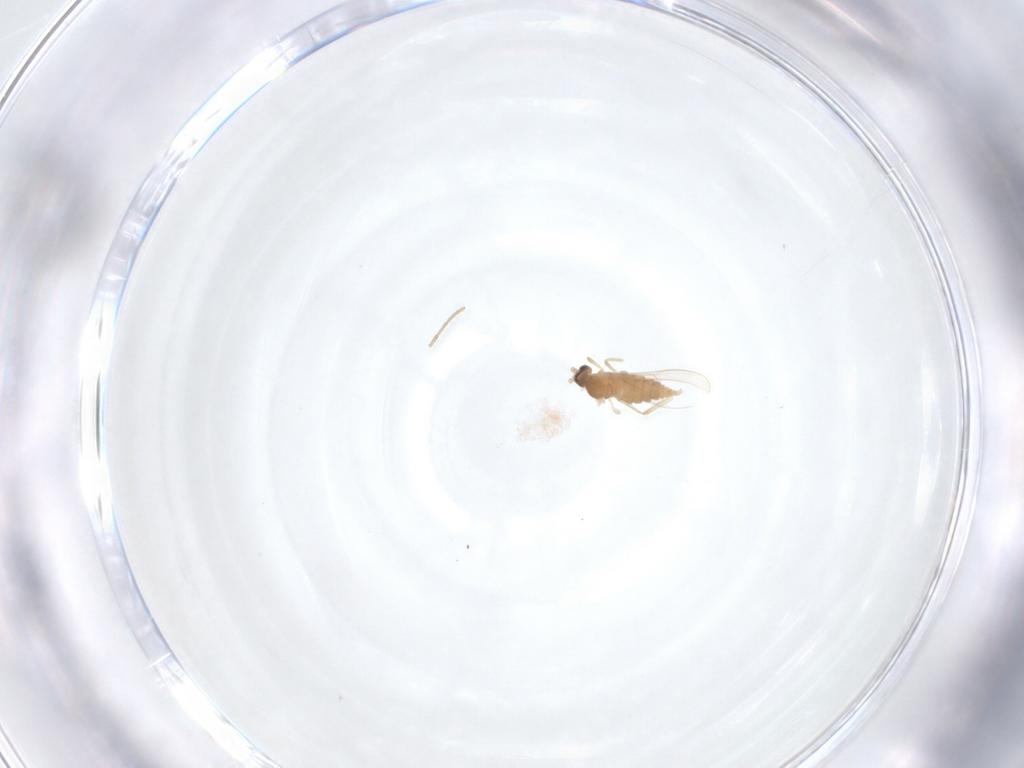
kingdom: Animalia
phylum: Arthropoda
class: Insecta
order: Diptera
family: Cecidomyiidae
